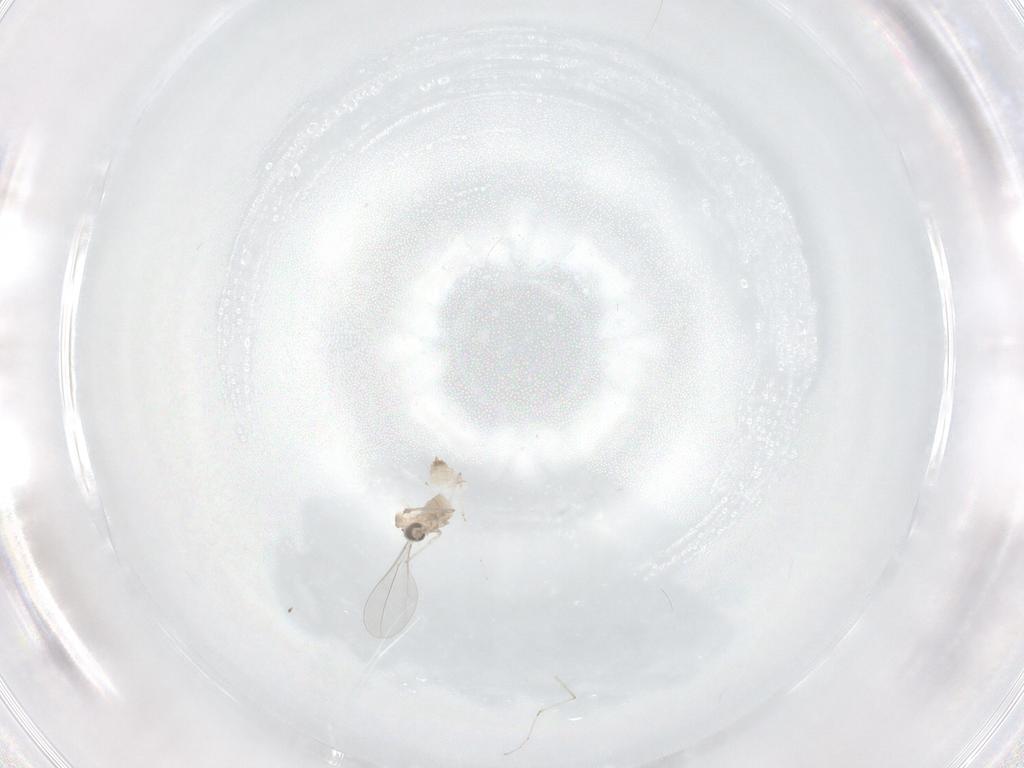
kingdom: Animalia
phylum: Arthropoda
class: Insecta
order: Diptera
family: Cecidomyiidae
